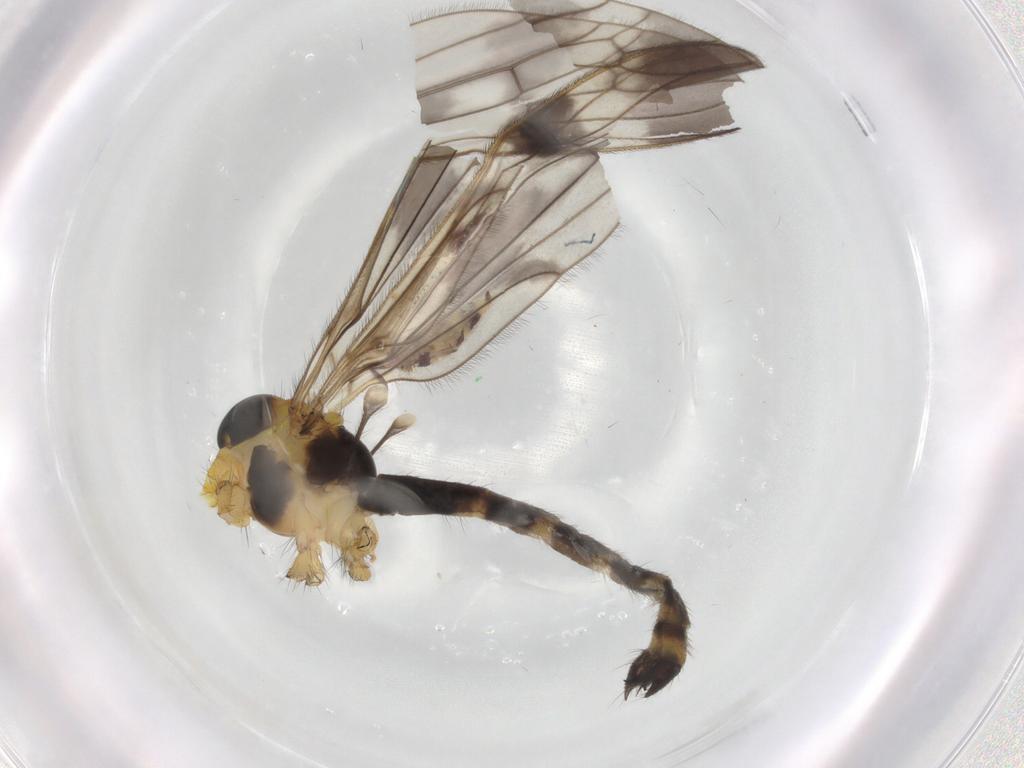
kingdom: Animalia
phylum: Arthropoda
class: Insecta
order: Diptera
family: Limoniidae
